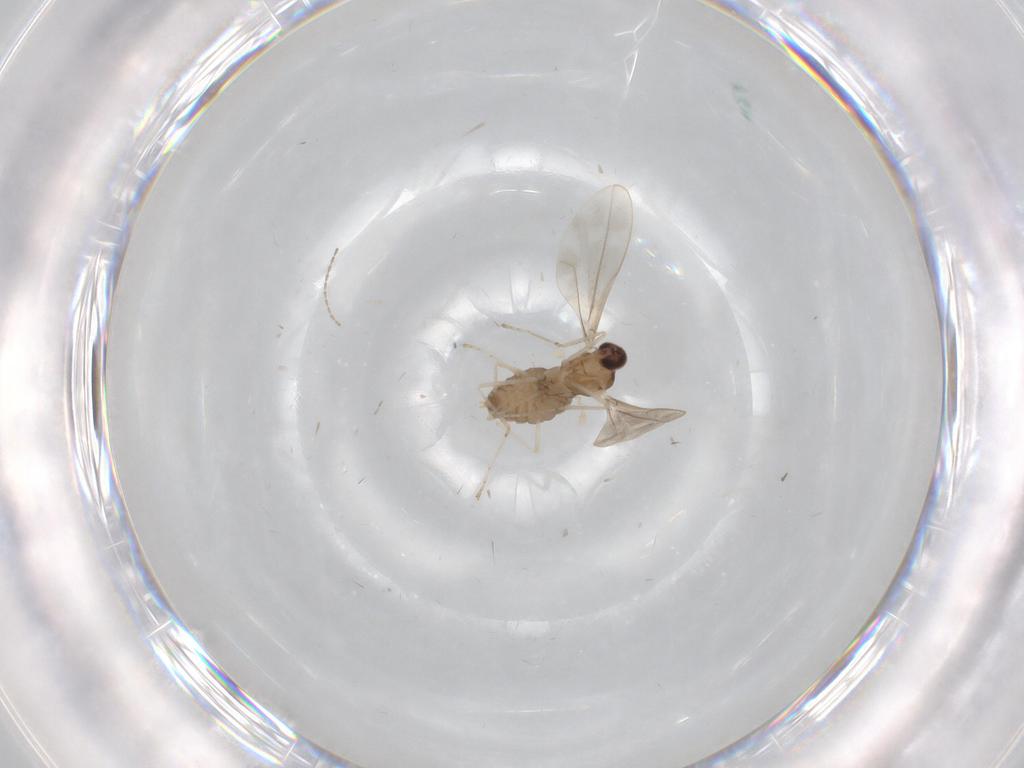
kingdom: Animalia
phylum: Arthropoda
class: Insecta
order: Diptera
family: Cecidomyiidae
